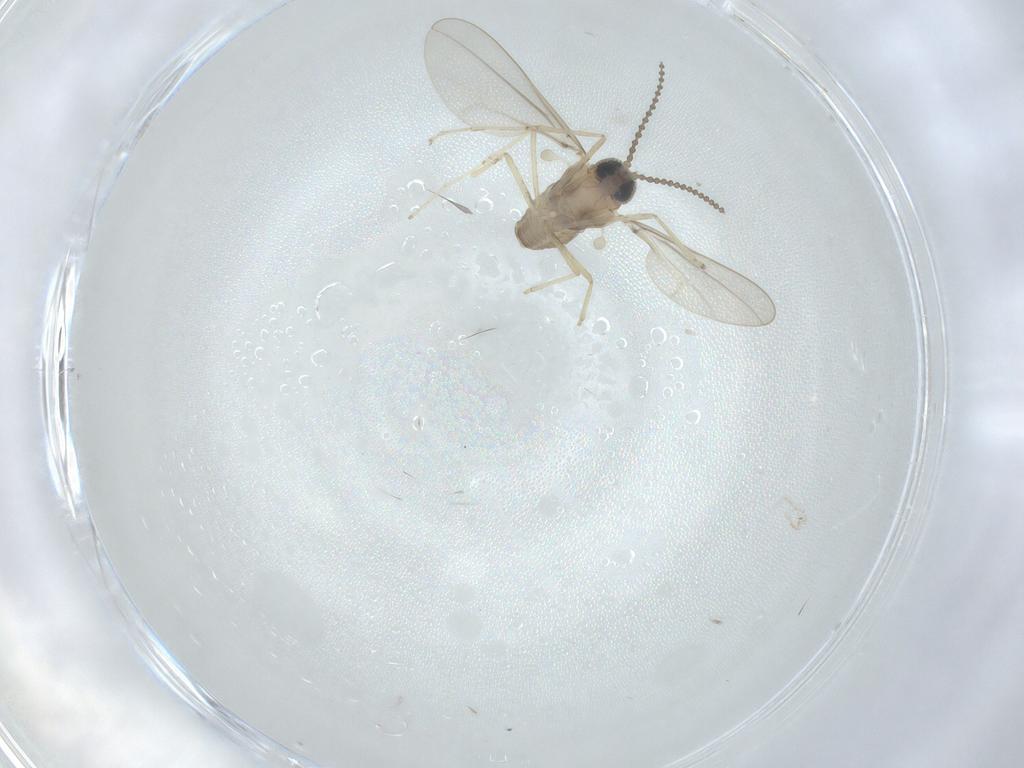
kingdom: Animalia
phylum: Arthropoda
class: Insecta
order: Diptera
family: Cecidomyiidae
